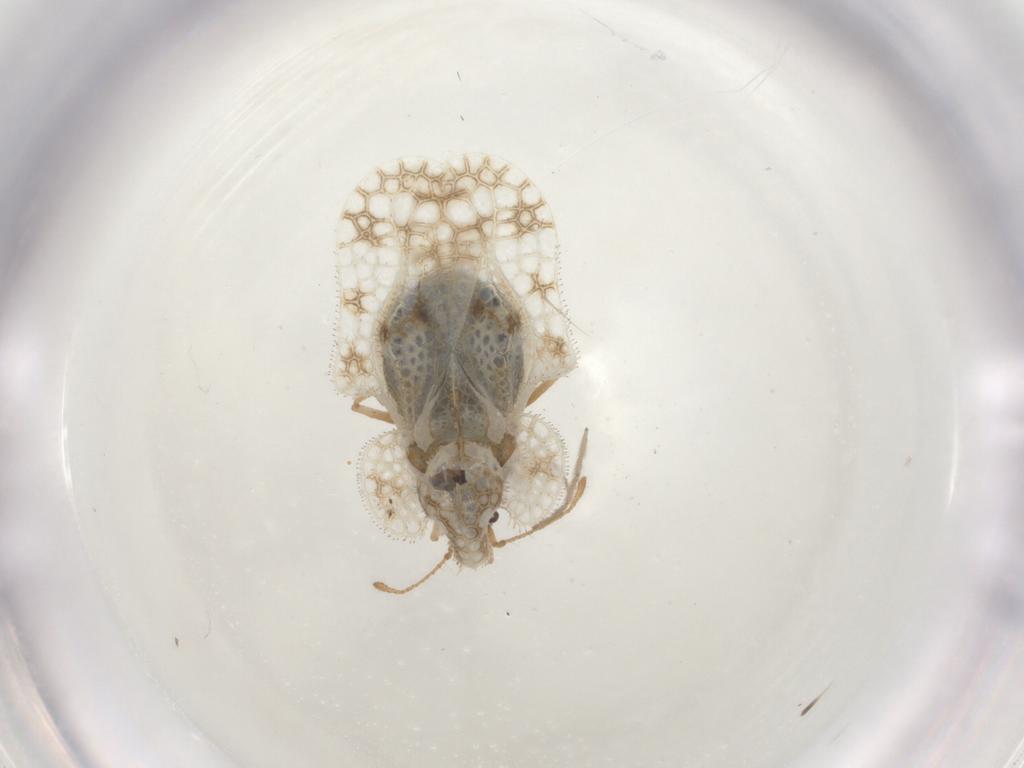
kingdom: Animalia
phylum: Arthropoda
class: Insecta
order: Hemiptera
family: Tingidae
